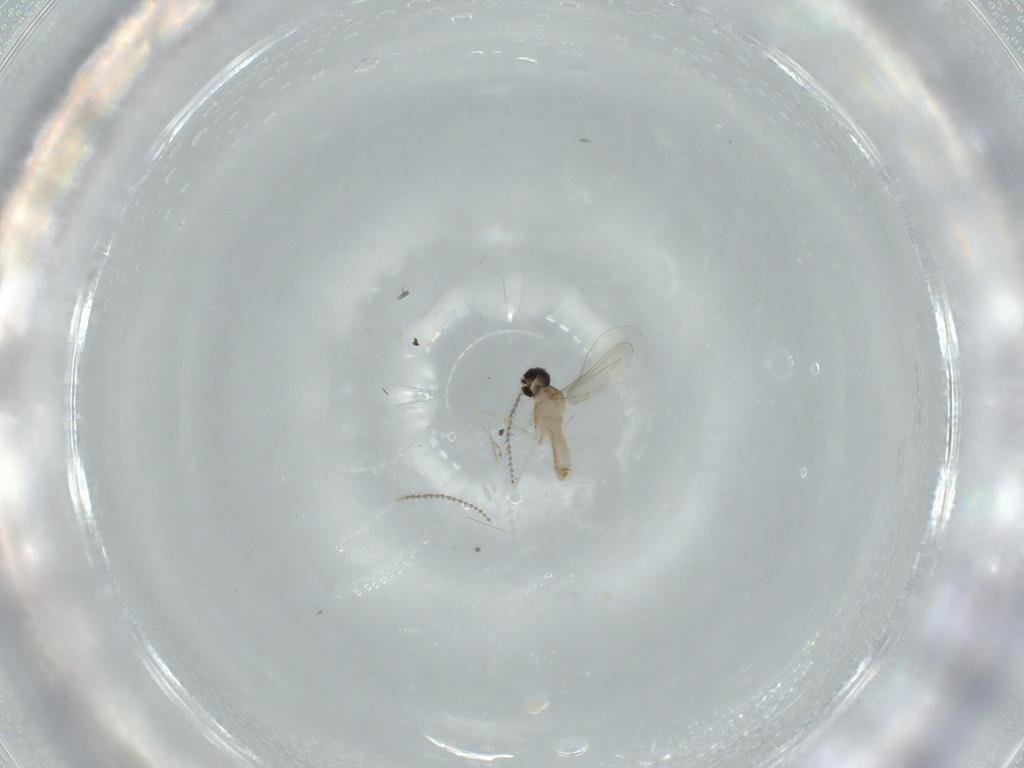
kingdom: Animalia
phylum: Arthropoda
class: Insecta
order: Diptera
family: Cecidomyiidae
